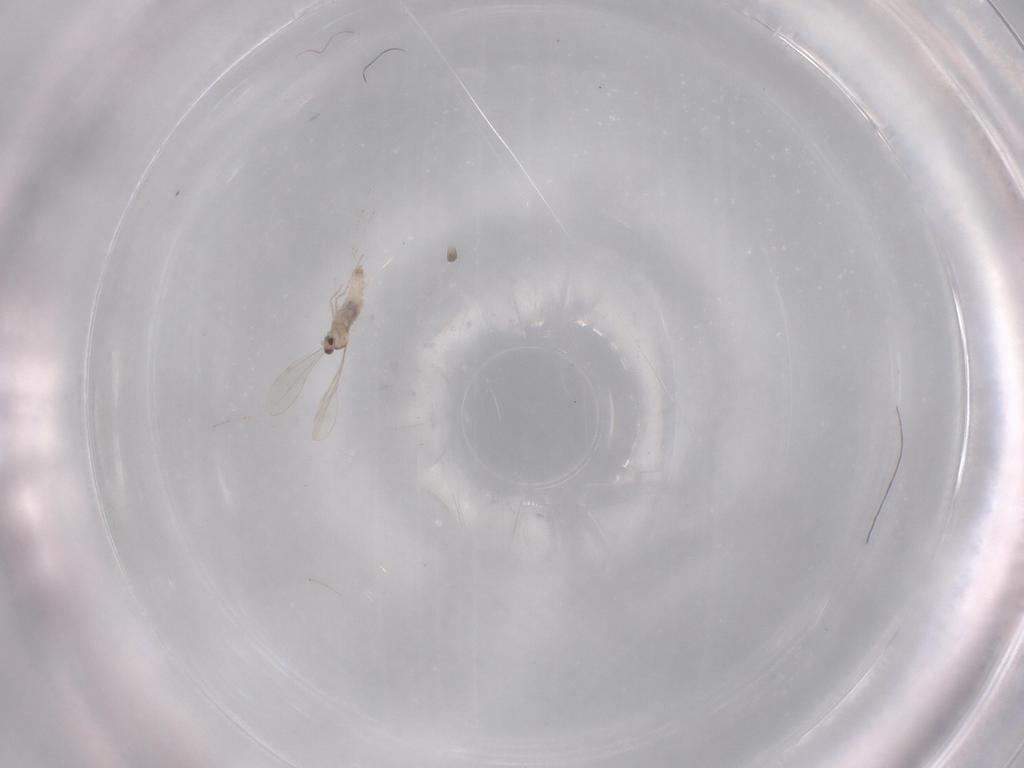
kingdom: Animalia
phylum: Arthropoda
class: Insecta
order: Diptera
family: Cecidomyiidae
